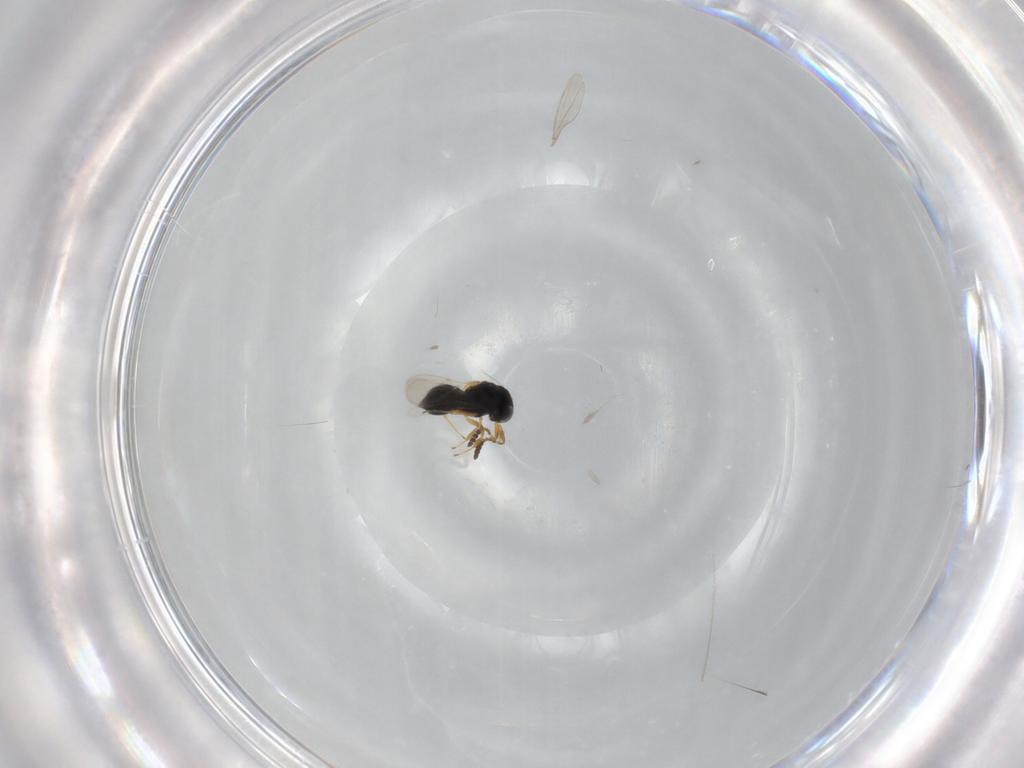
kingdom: Animalia
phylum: Arthropoda
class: Insecta
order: Hymenoptera
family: Scelionidae
